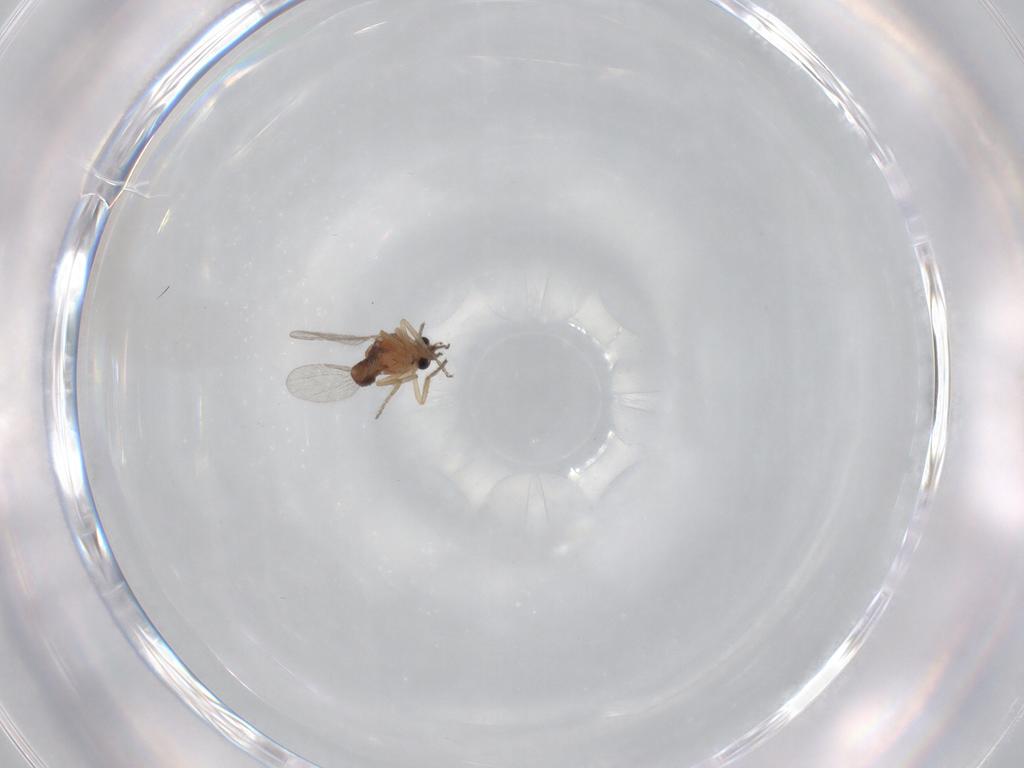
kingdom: Animalia
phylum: Arthropoda
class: Insecta
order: Diptera
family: Ceratopogonidae
